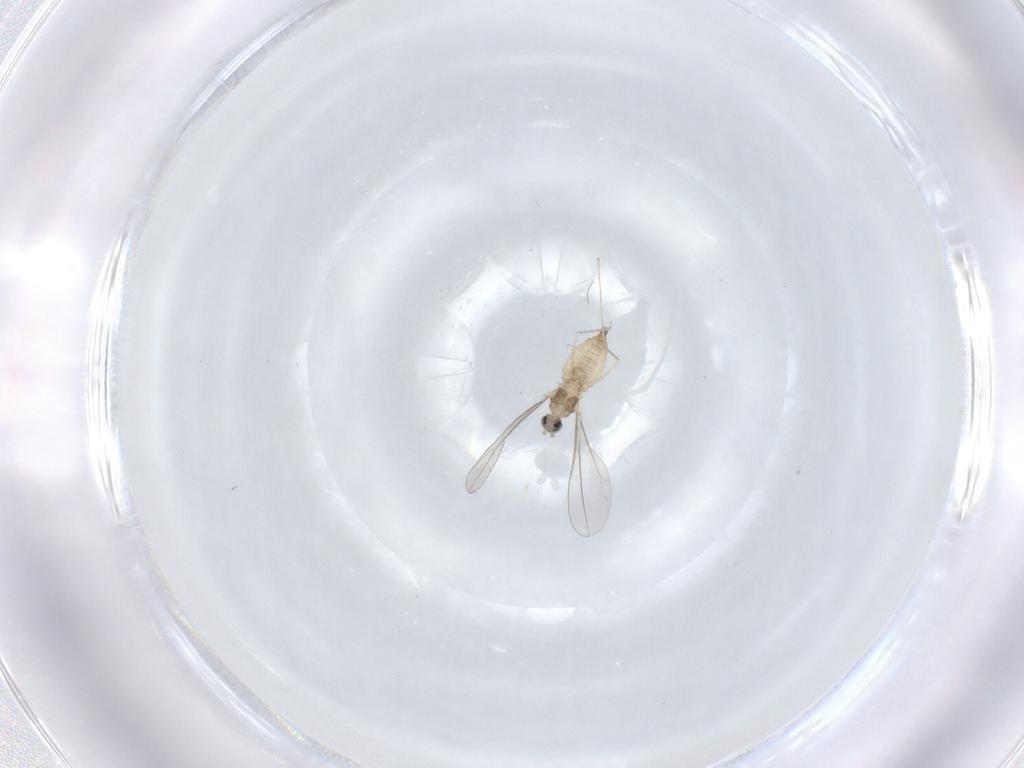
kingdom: Animalia
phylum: Arthropoda
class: Insecta
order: Diptera
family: Cecidomyiidae
